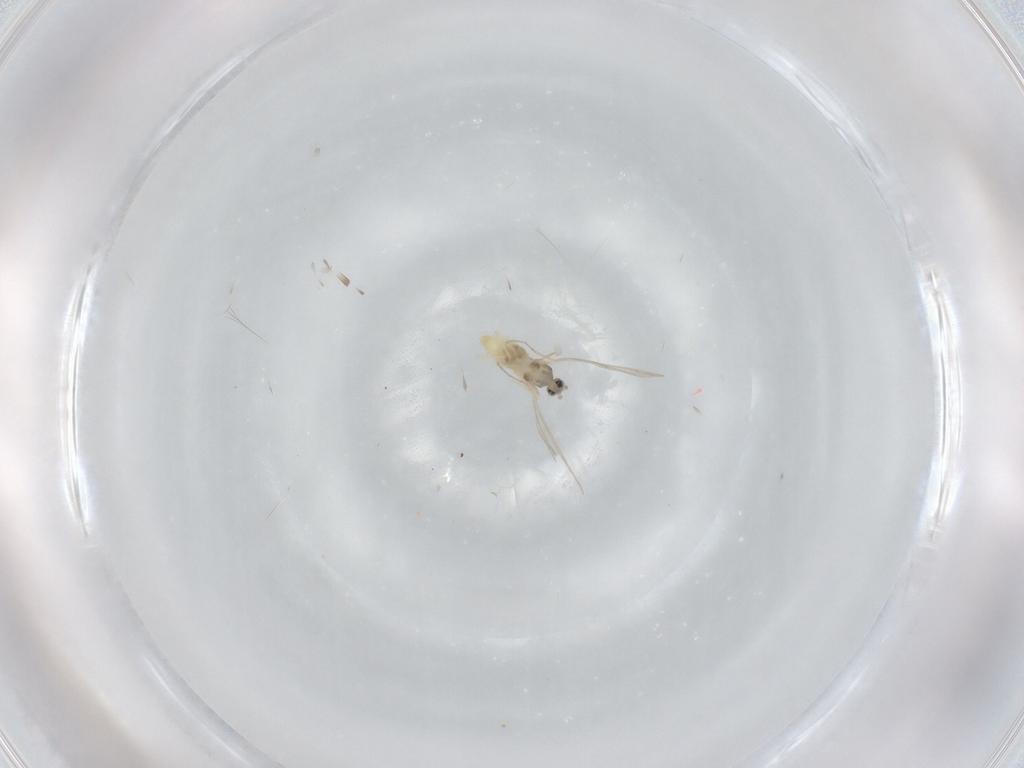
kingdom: Animalia
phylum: Arthropoda
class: Insecta
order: Diptera
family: Cecidomyiidae
